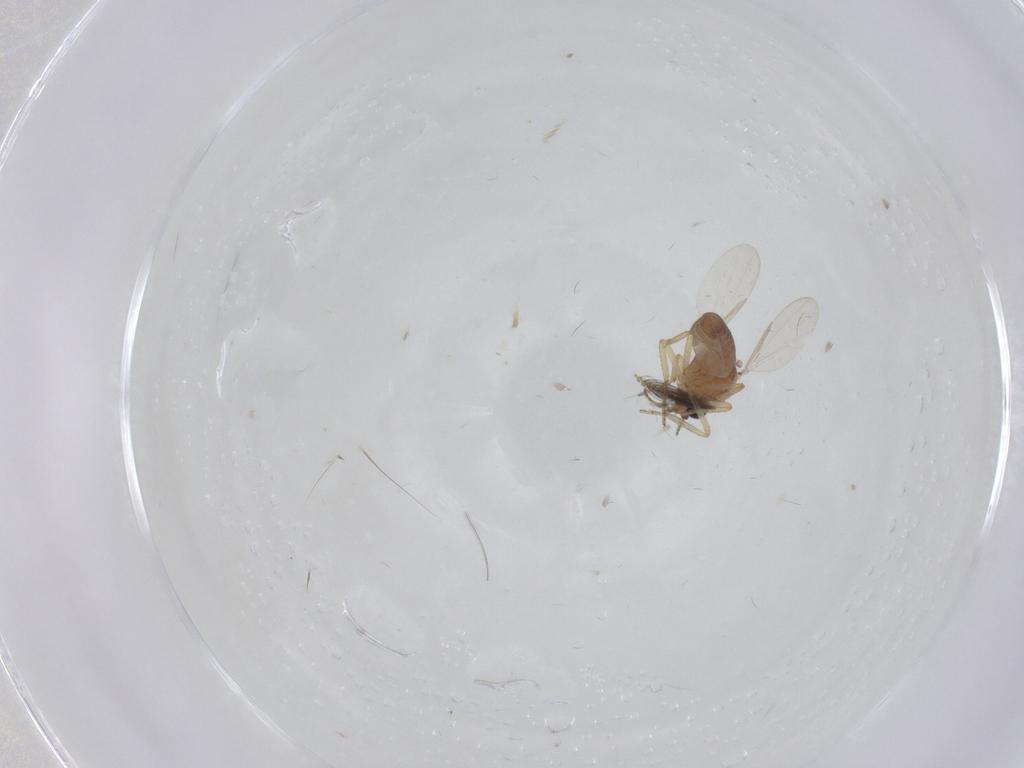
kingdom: Animalia
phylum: Arthropoda
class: Insecta
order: Diptera
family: Ceratopogonidae
